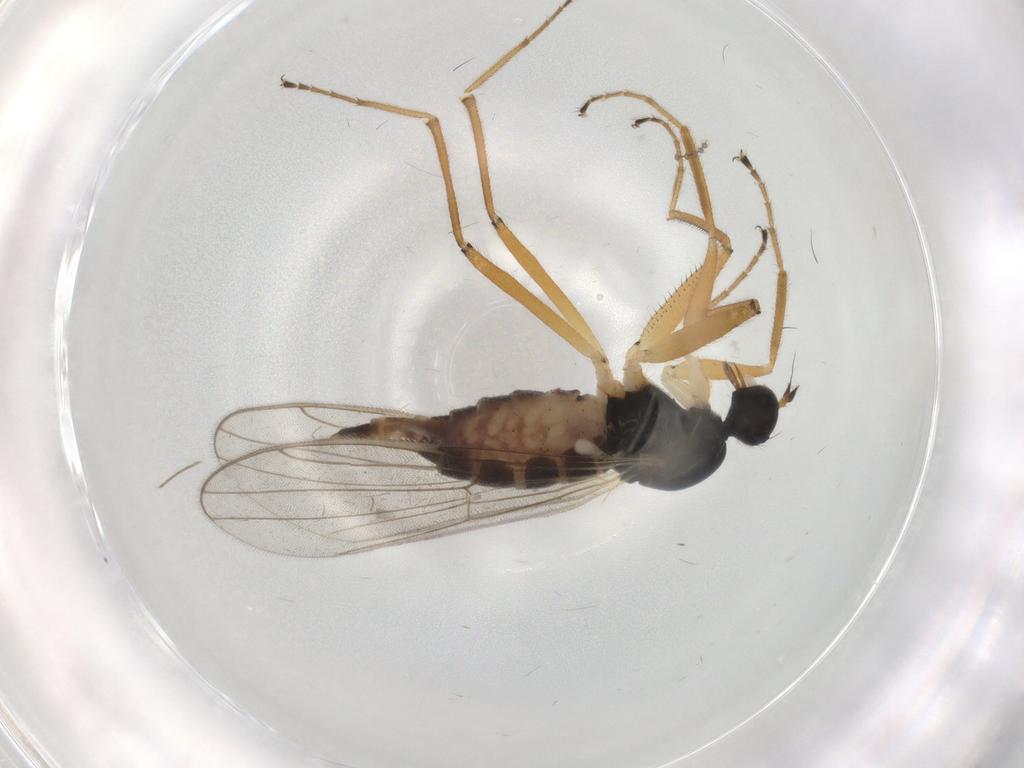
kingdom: Animalia
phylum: Arthropoda
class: Insecta
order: Diptera
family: Hybotidae
